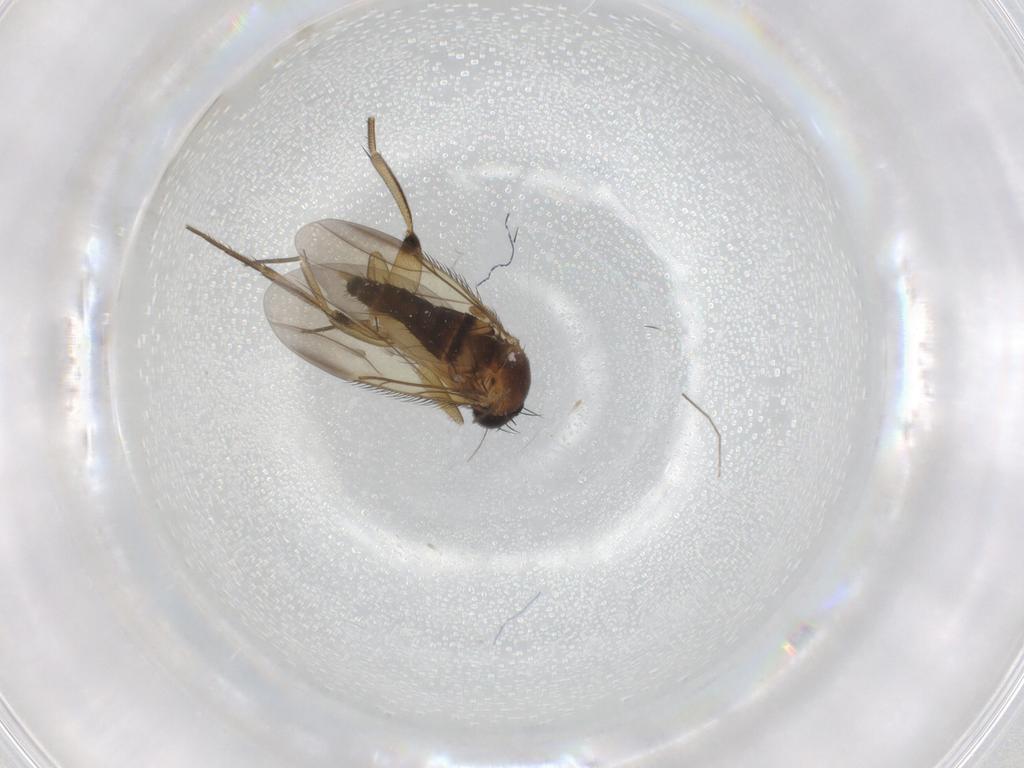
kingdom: Animalia
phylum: Arthropoda
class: Insecta
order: Diptera
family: Phoridae
